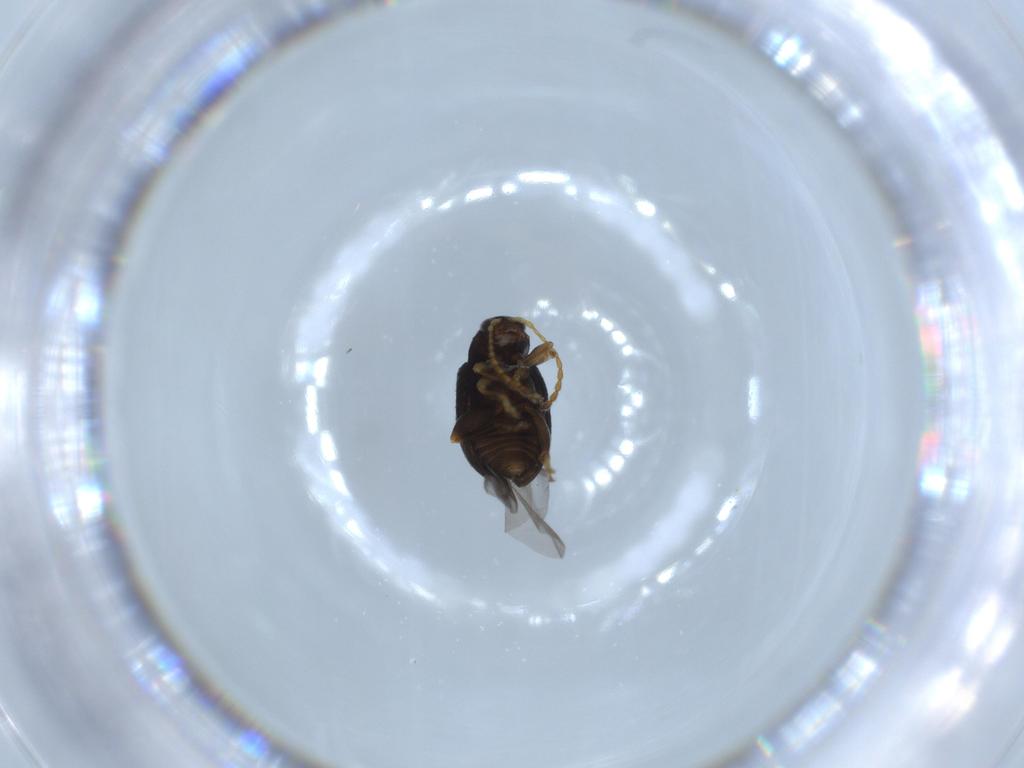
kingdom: Animalia
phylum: Arthropoda
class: Insecta
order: Coleoptera
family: Chrysomelidae
